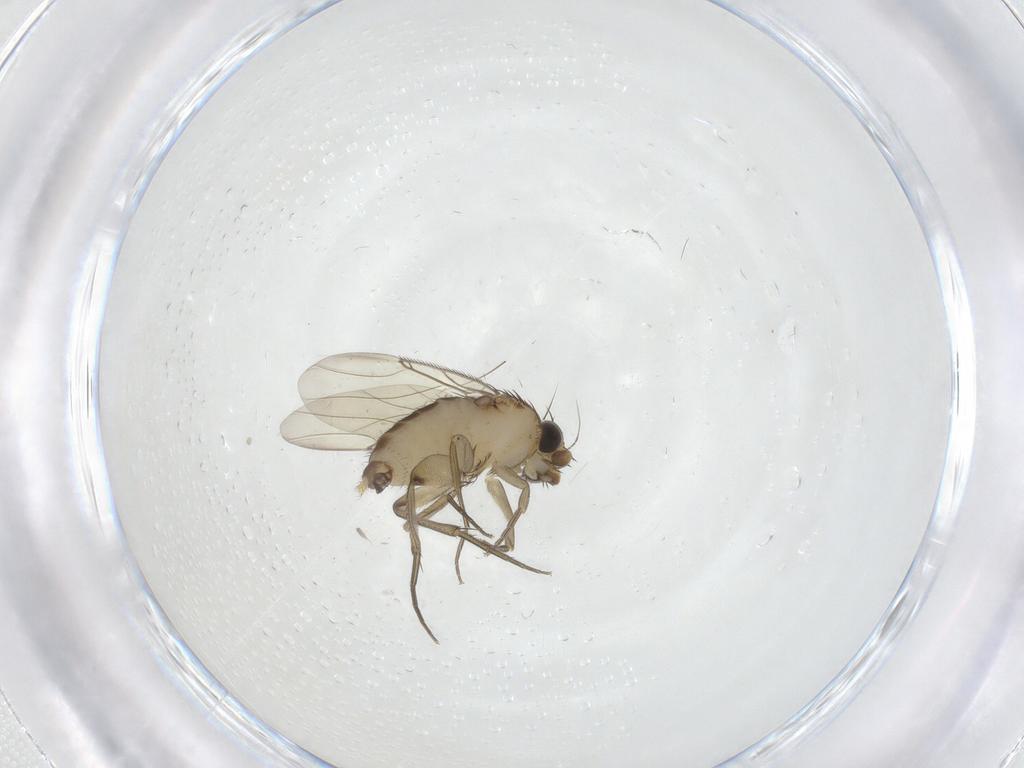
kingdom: Animalia
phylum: Arthropoda
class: Insecta
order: Diptera
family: Phoridae
